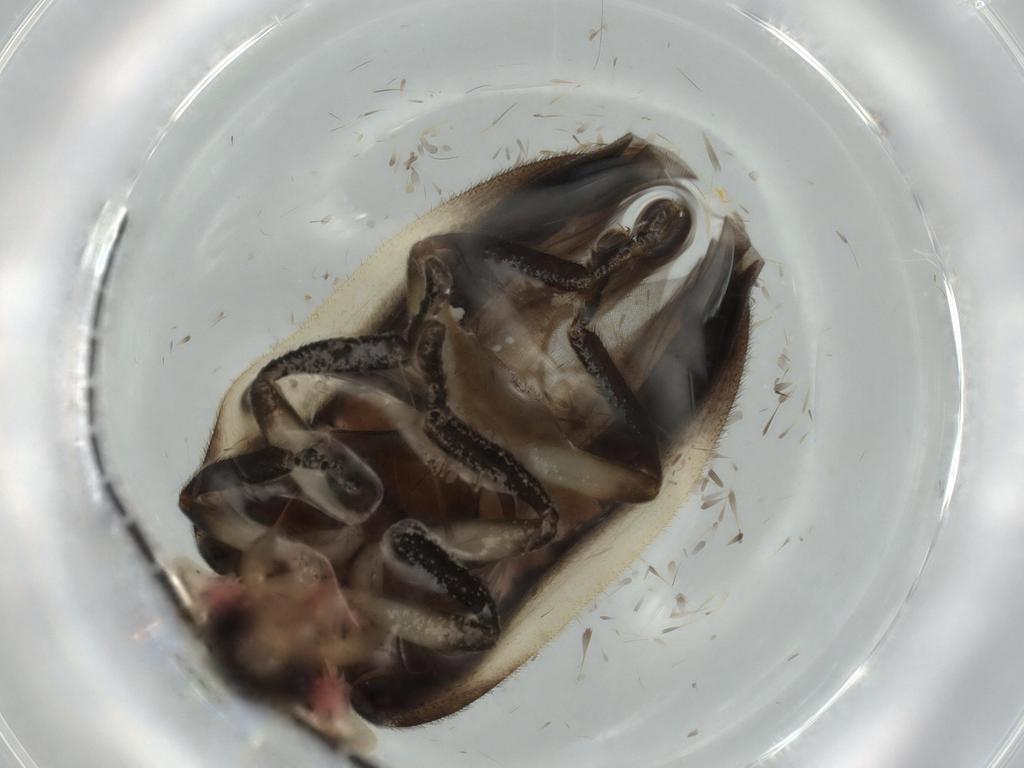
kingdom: Animalia
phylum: Arthropoda
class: Insecta
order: Coleoptera
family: Lampyridae
